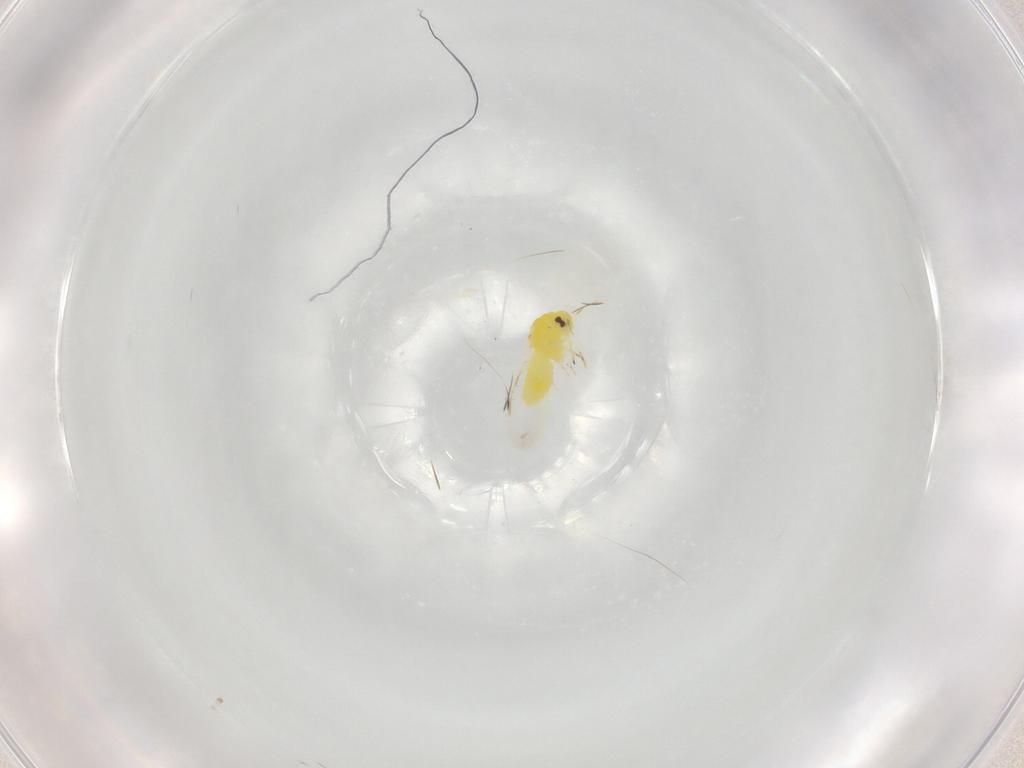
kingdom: Animalia
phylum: Arthropoda
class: Insecta
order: Hemiptera
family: Aleyrodidae
